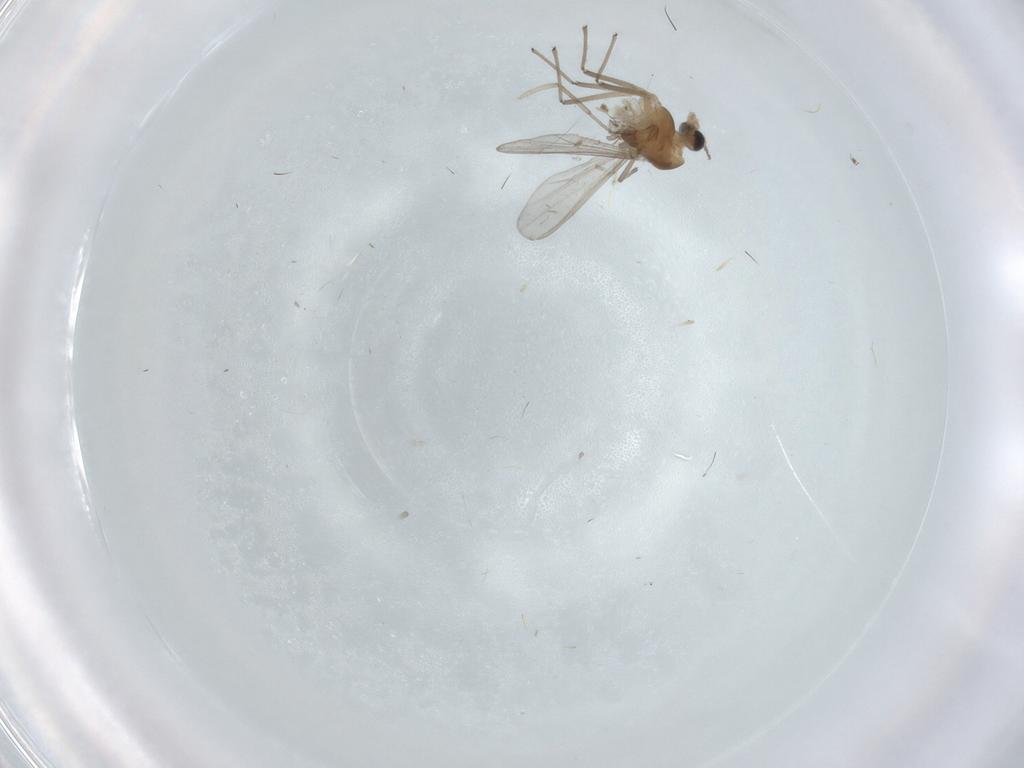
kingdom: Animalia
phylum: Arthropoda
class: Insecta
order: Diptera
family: Chironomidae
